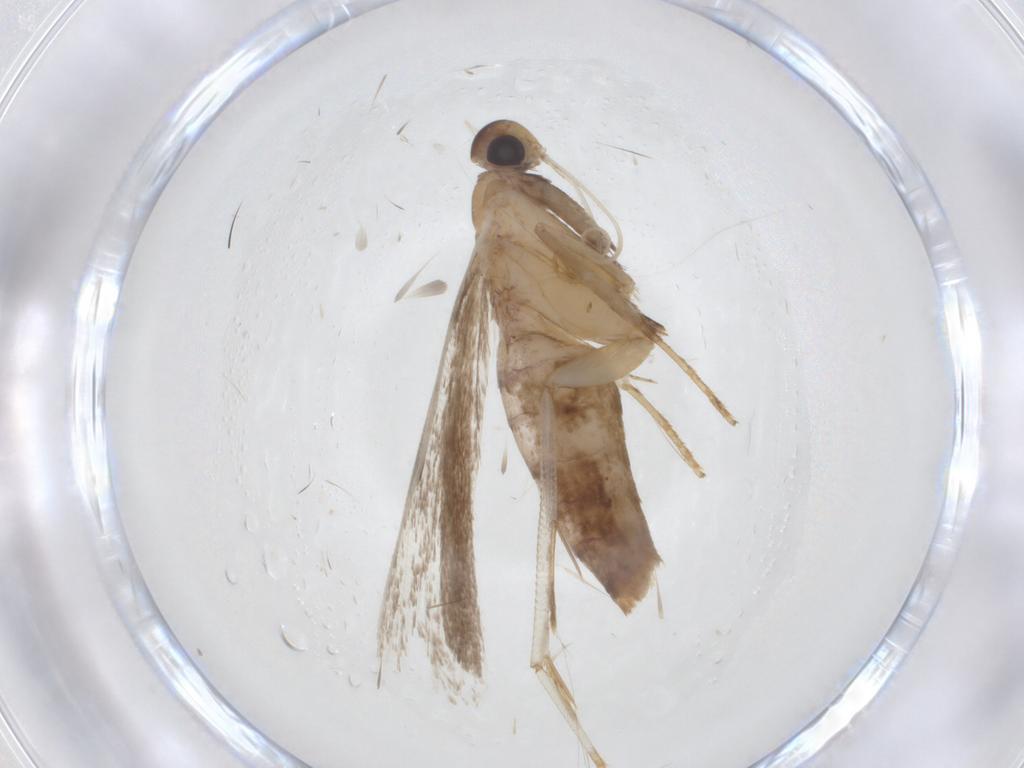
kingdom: Animalia
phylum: Arthropoda
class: Insecta
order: Lepidoptera
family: Gelechiidae
